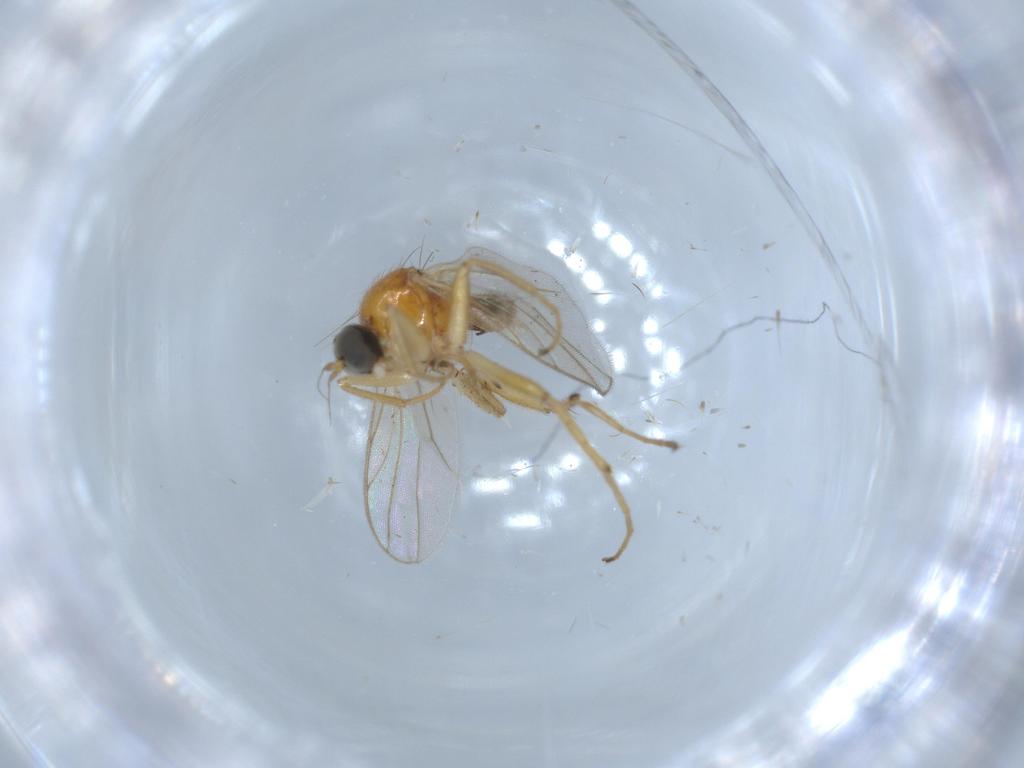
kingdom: Animalia
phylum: Arthropoda
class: Insecta
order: Diptera
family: Hybotidae
